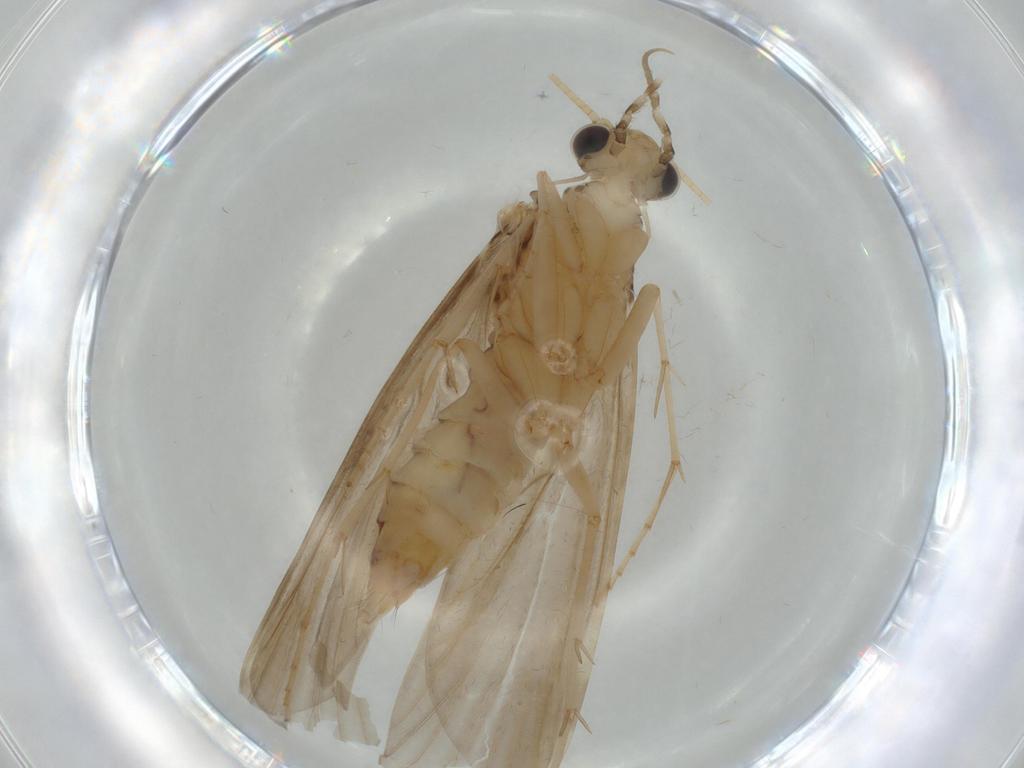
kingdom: Animalia
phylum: Arthropoda
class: Insecta
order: Trichoptera
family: Ecnomidae
